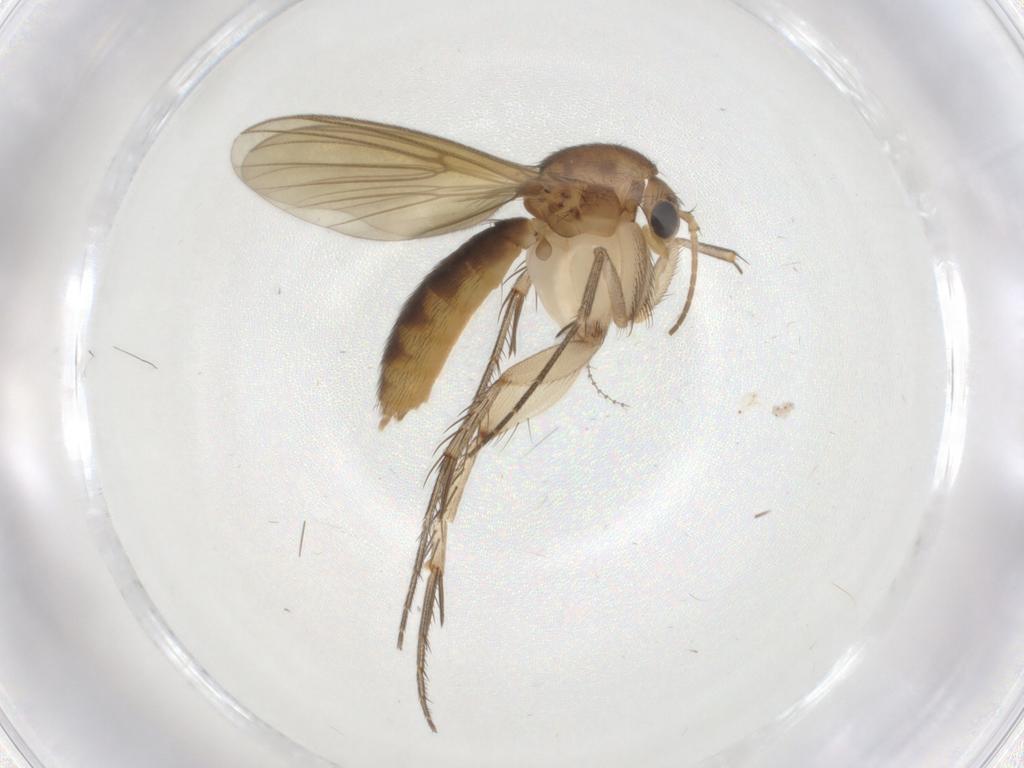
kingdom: Animalia
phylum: Arthropoda
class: Insecta
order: Diptera
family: Mycetophilidae
